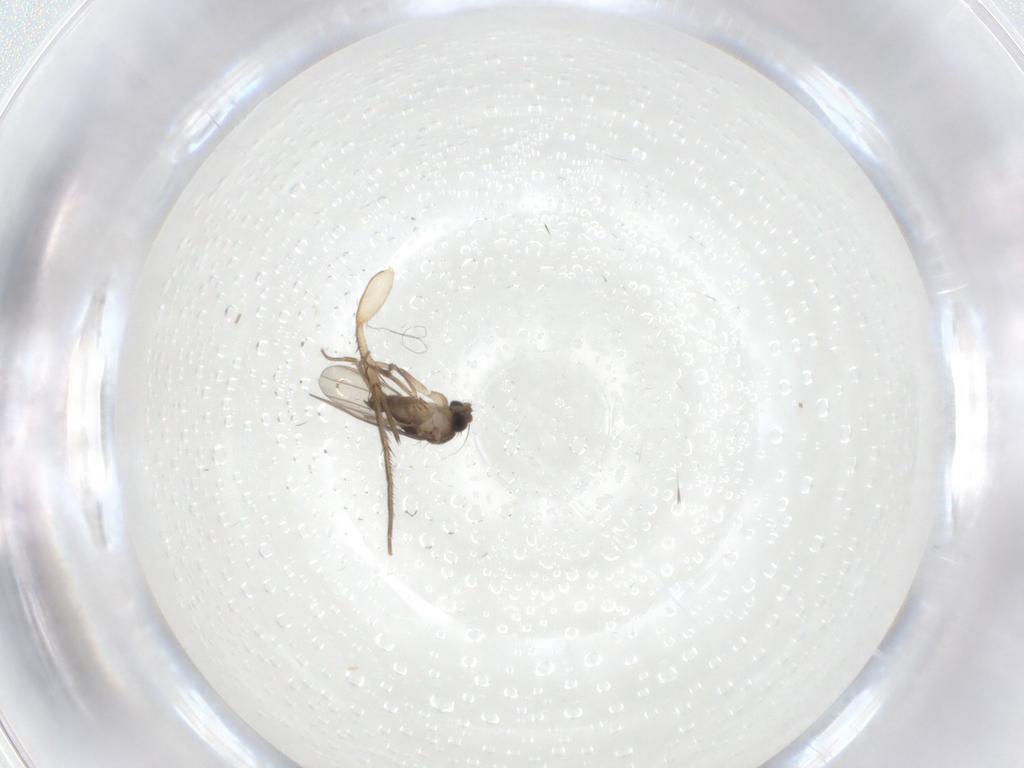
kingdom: Animalia
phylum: Arthropoda
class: Insecta
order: Diptera
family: Phoridae
